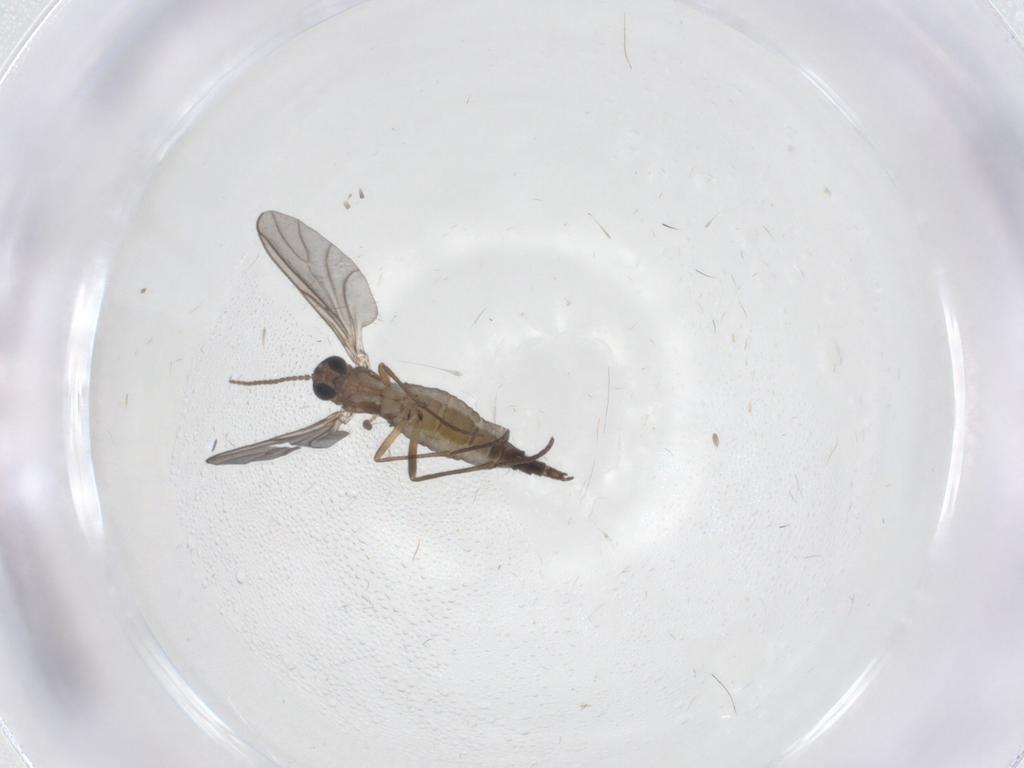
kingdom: Animalia
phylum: Arthropoda
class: Insecta
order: Diptera
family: Sciaridae
